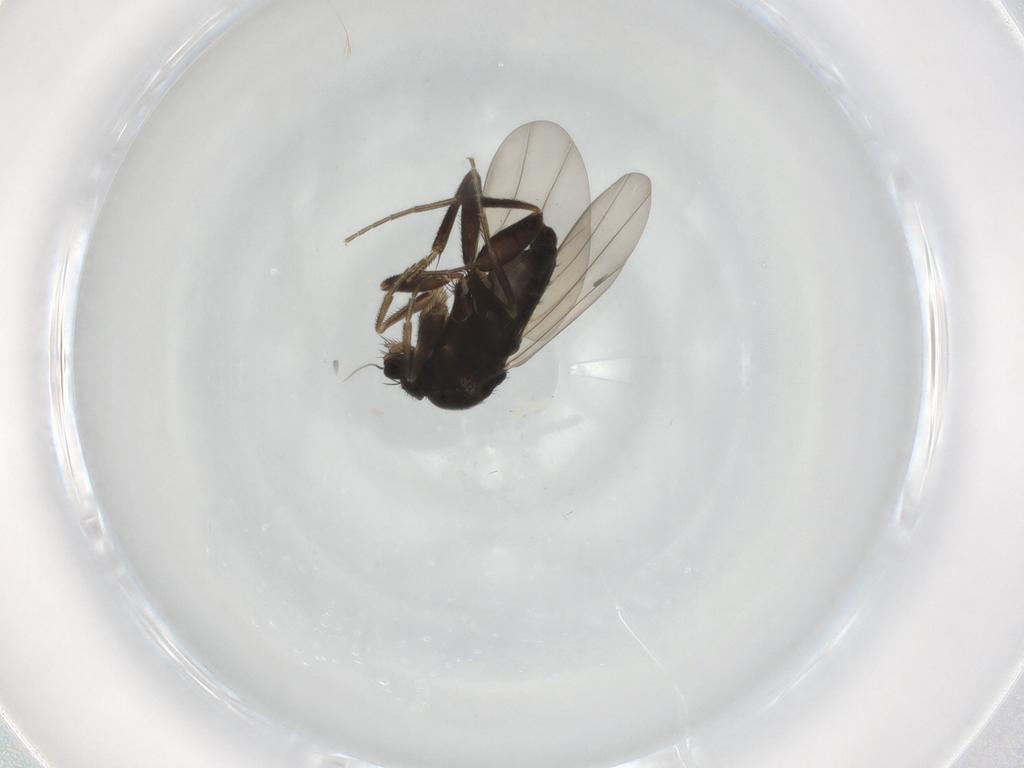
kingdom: Animalia
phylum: Arthropoda
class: Insecta
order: Diptera
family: Phoridae
